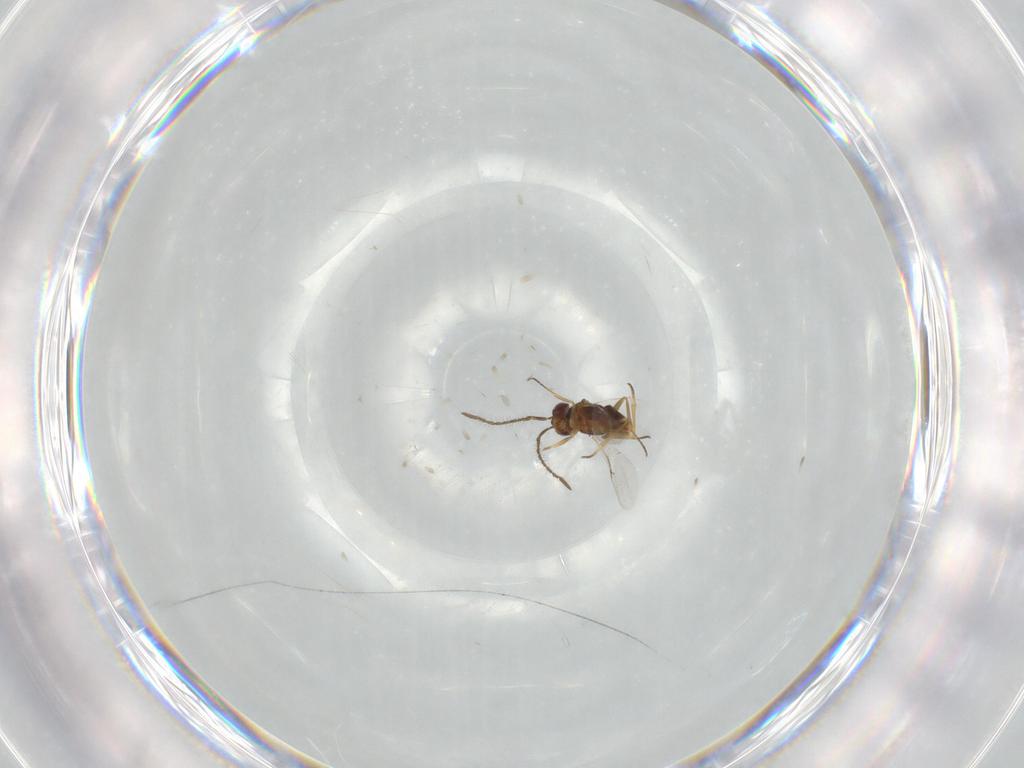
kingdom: Animalia
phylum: Arthropoda
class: Insecta
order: Hymenoptera
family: Encyrtidae
